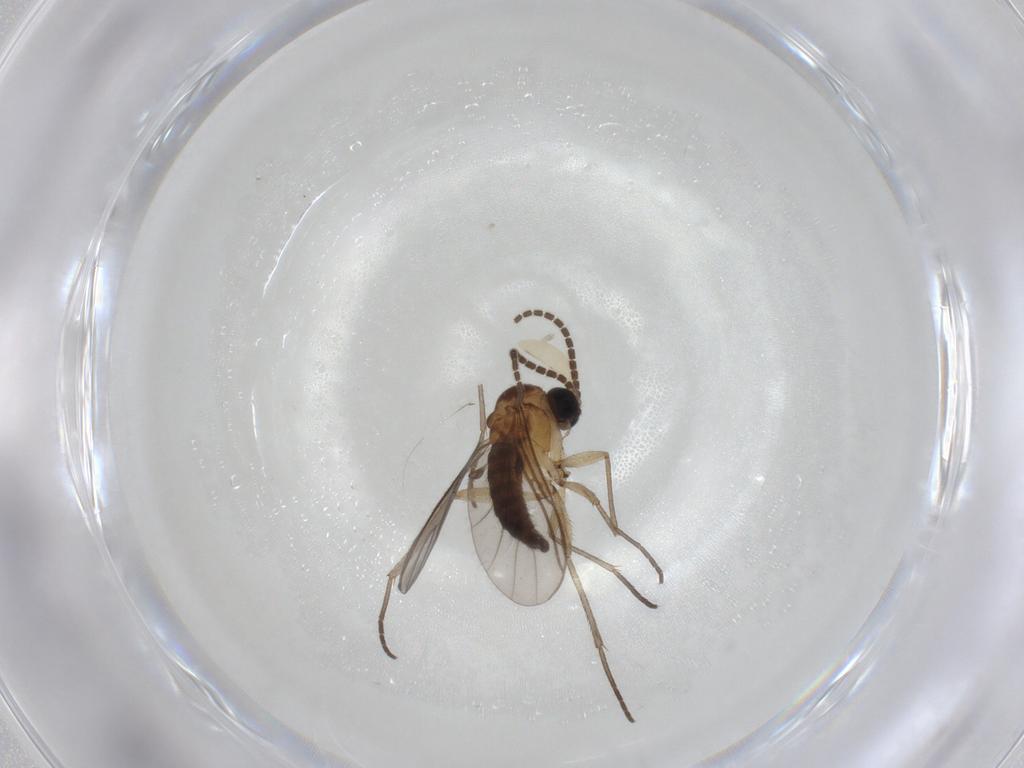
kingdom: Animalia
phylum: Arthropoda
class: Insecta
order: Diptera
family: Sciaridae
